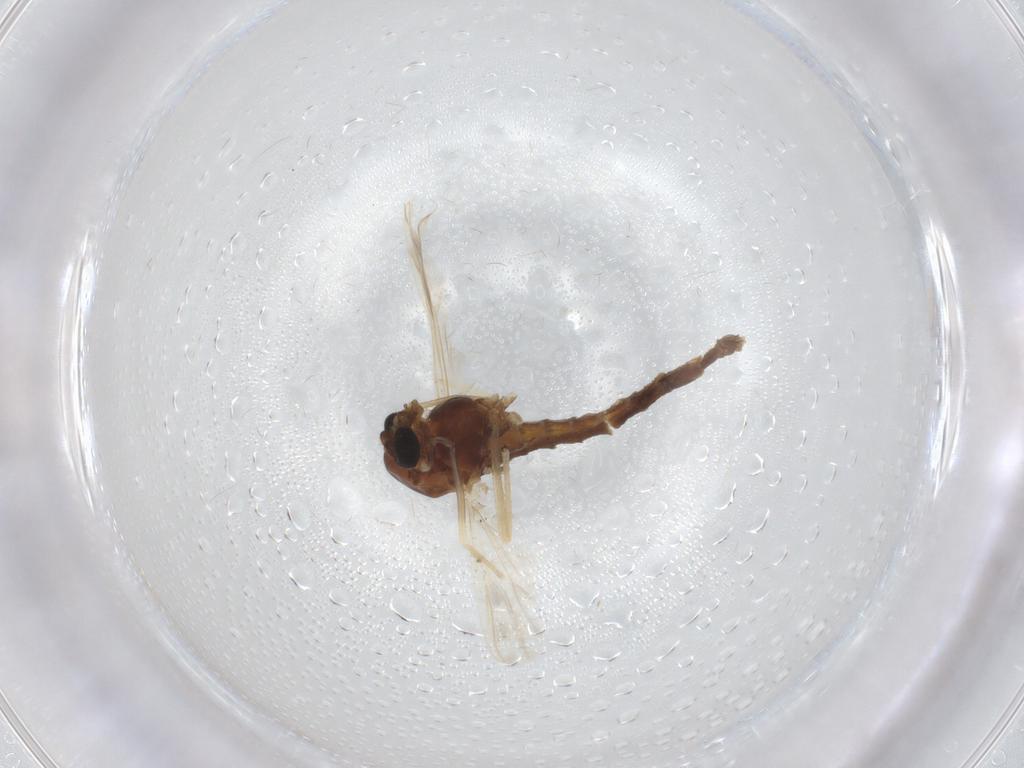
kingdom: Animalia
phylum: Arthropoda
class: Insecta
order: Diptera
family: Chironomidae
